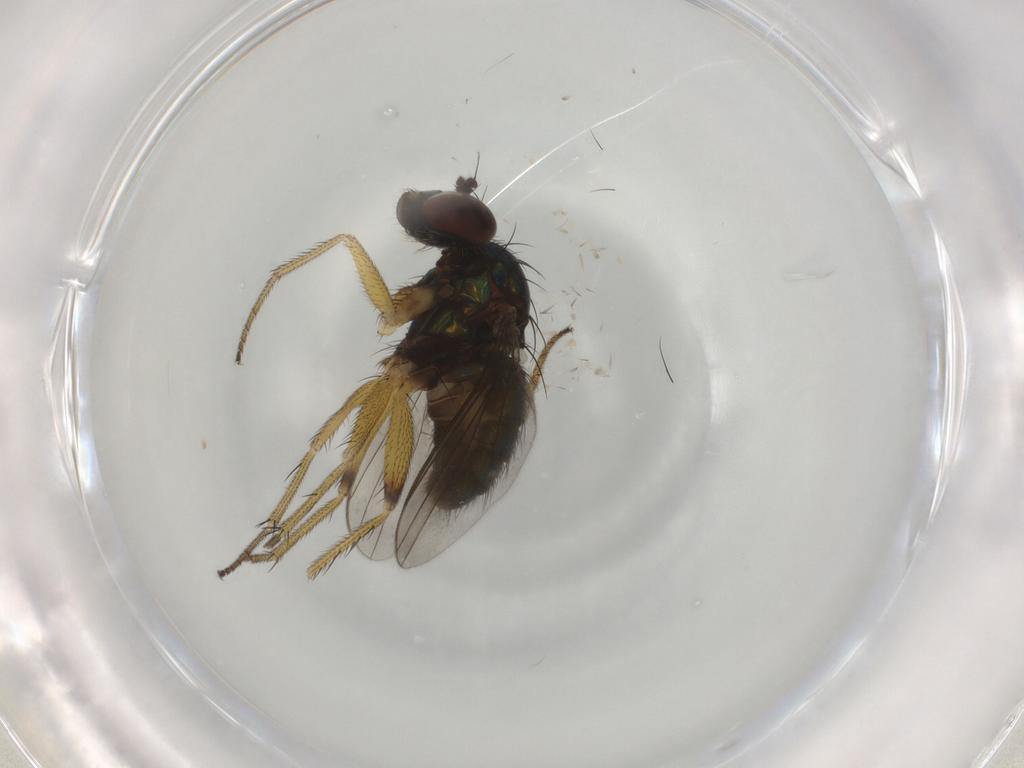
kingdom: Animalia
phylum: Arthropoda
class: Insecta
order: Diptera
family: Dolichopodidae
